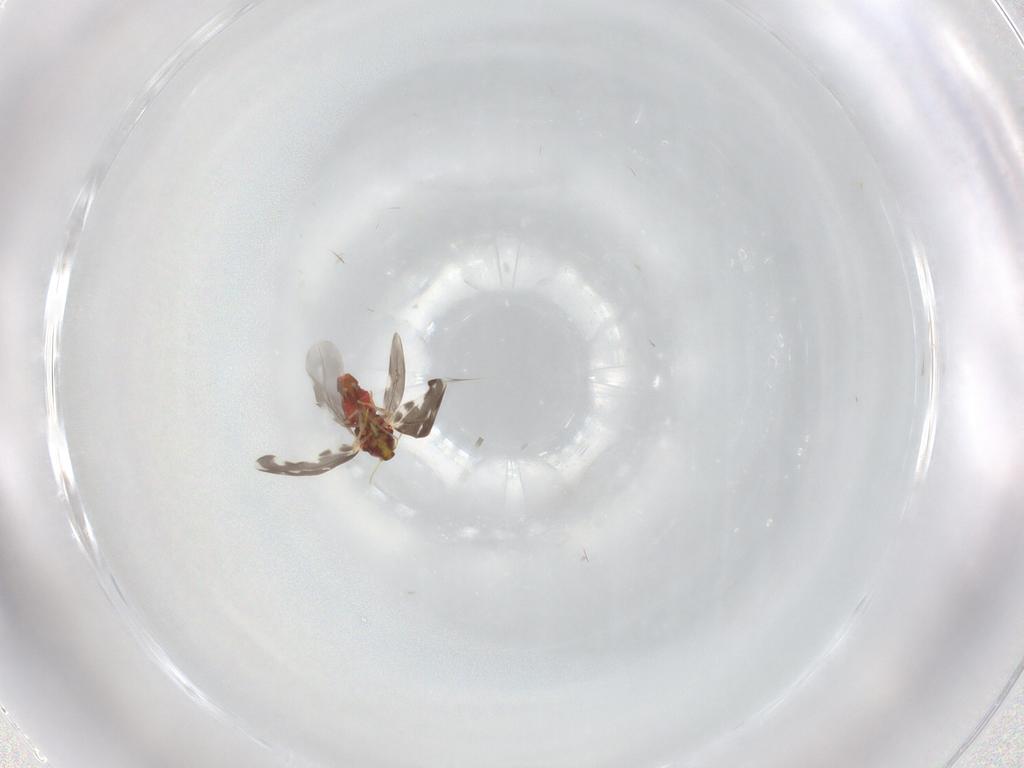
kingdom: Animalia
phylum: Arthropoda
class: Insecta
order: Hemiptera
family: Aleyrodidae
